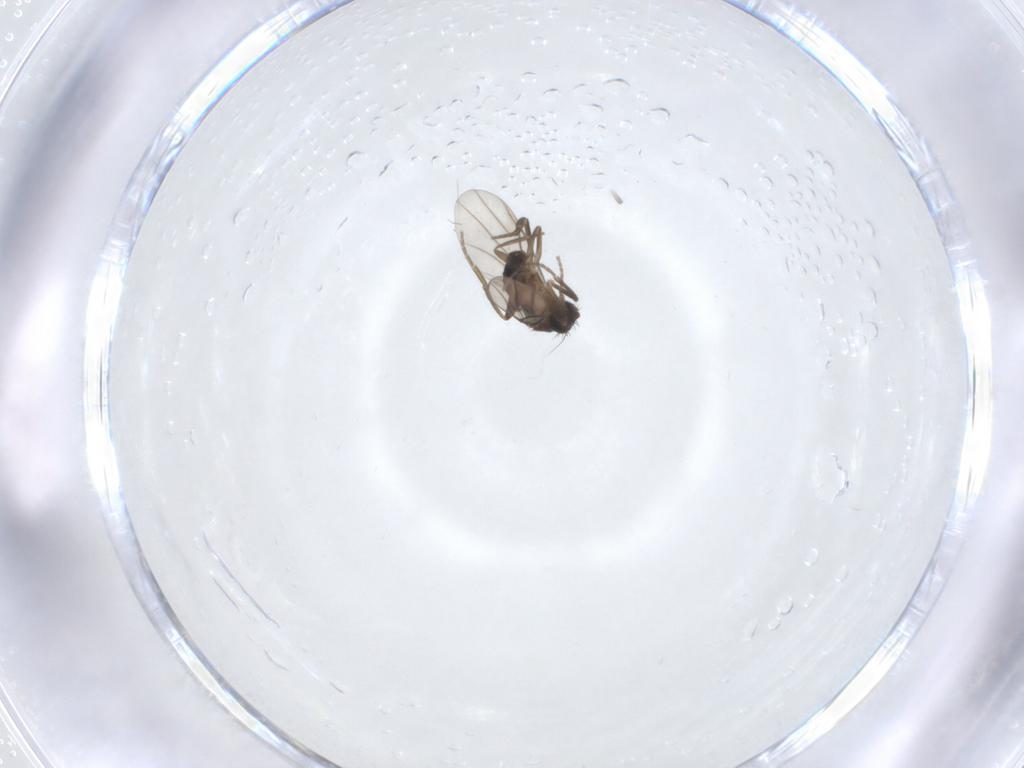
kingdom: Animalia
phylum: Arthropoda
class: Insecta
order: Diptera
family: Phoridae
